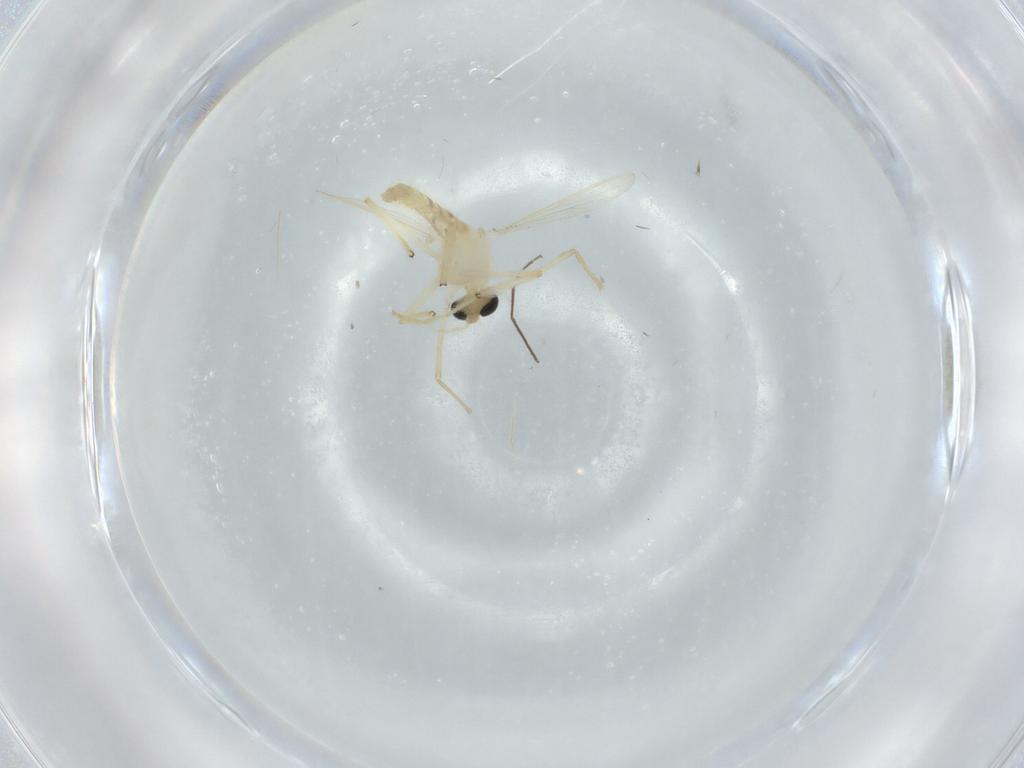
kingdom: Animalia
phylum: Arthropoda
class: Insecta
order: Diptera
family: Chironomidae
